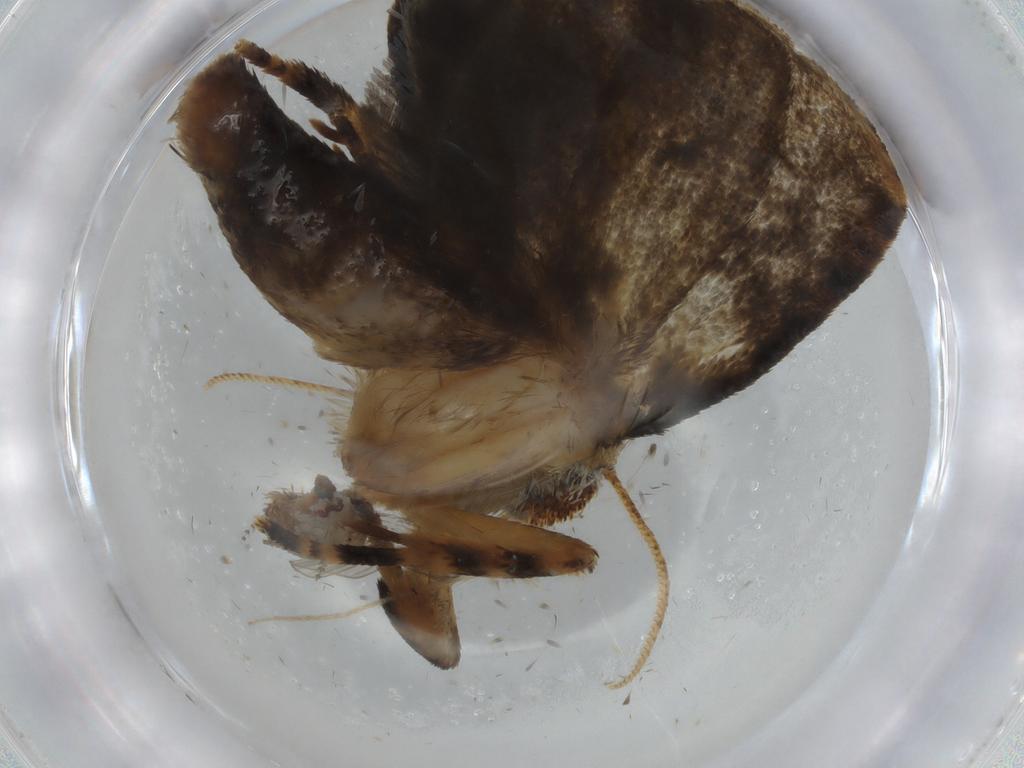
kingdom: Animalia
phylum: Arthropoda
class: Insecta
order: Lepidoptera
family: Tineidae
